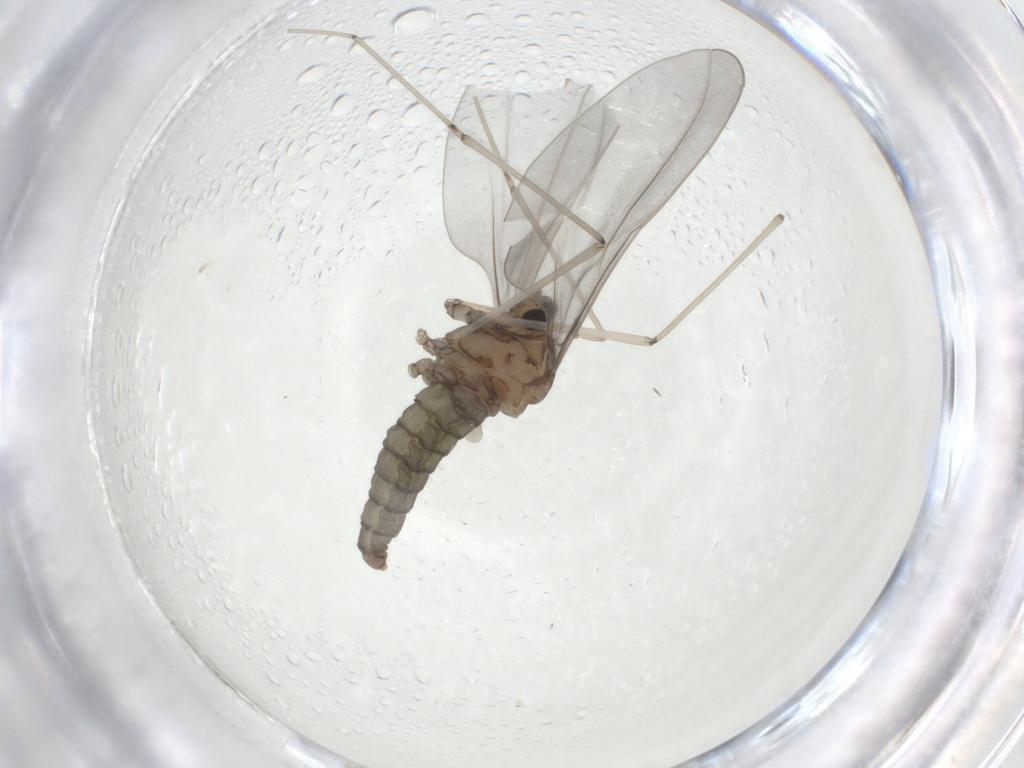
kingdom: Animalia
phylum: Arthropoda
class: Insecta
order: Diptera
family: Cecidomyiidae
